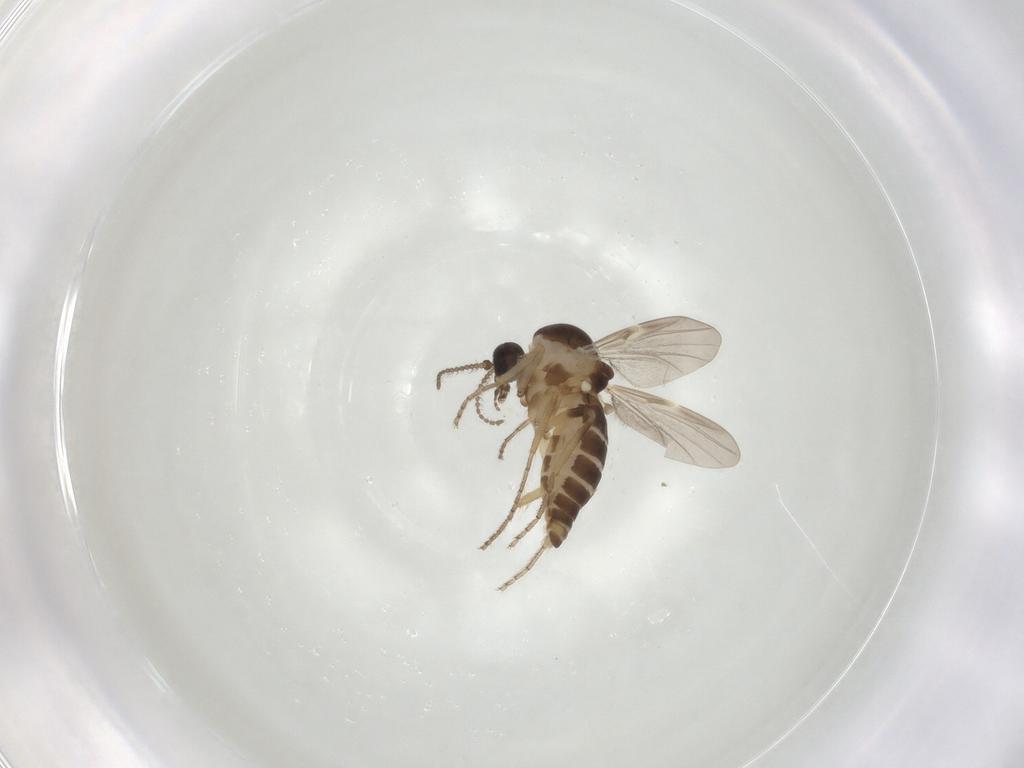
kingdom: Animalia
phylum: Arthropoda
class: Insecta
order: Diptera
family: Ceratopogonidae
